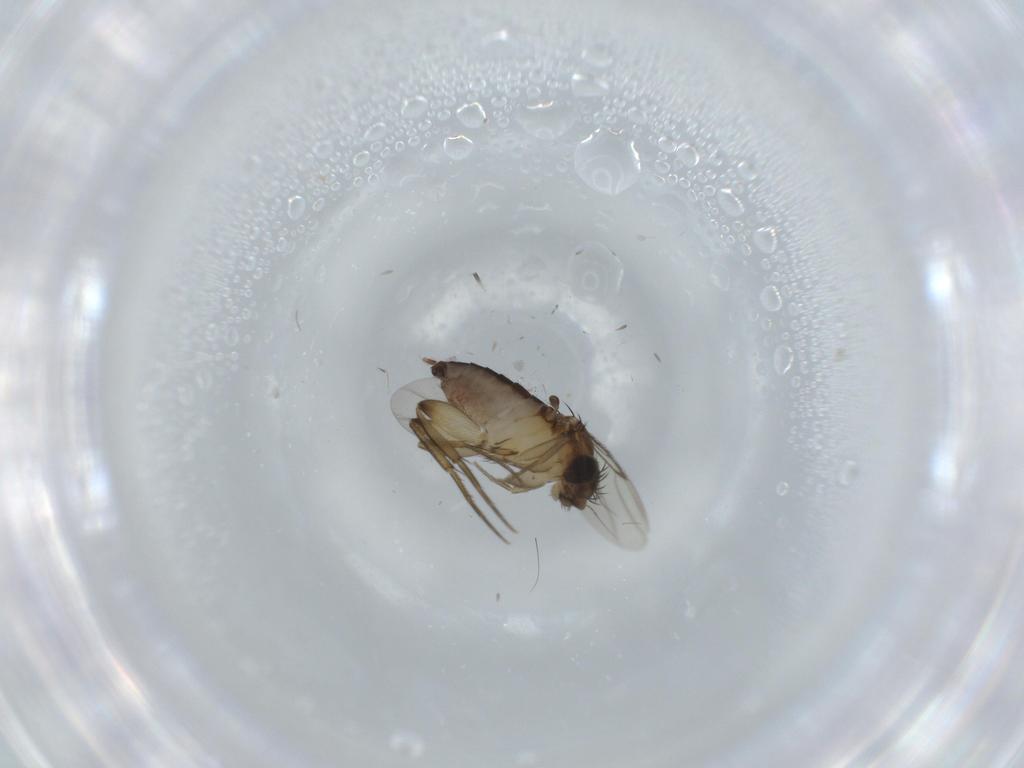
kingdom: Animalia
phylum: Arthropoda
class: Insecta
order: Diptera
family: Phoridae
